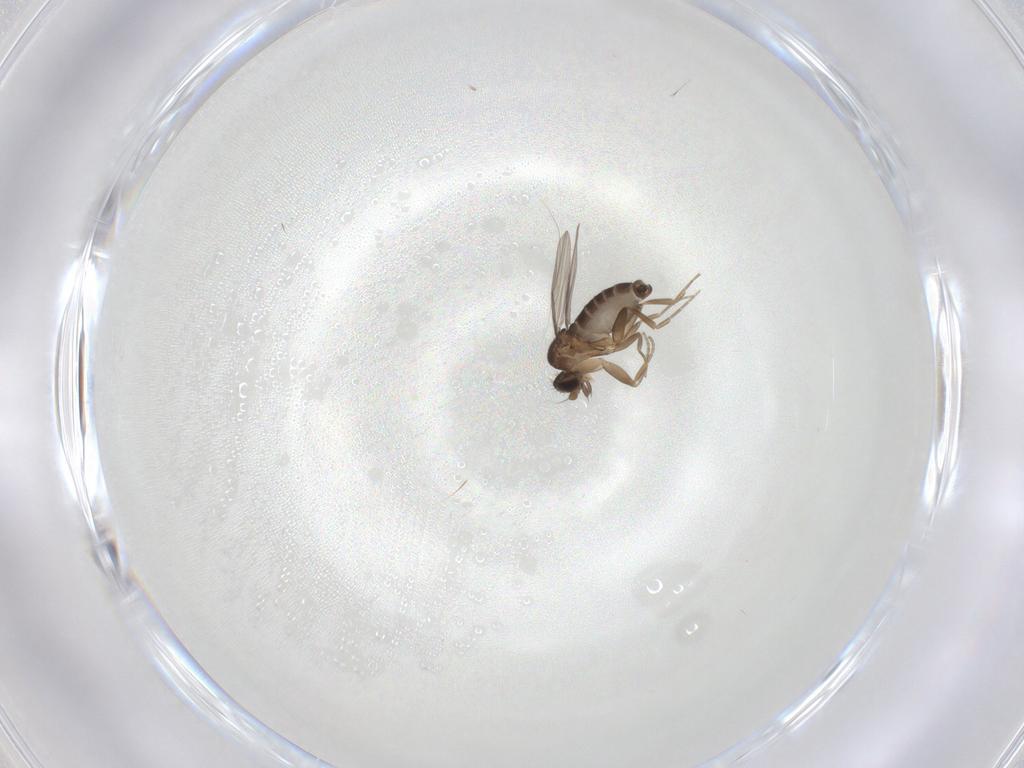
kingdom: Animalia
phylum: Arthropoda
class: Insecta
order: Diptera
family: Phoridae
